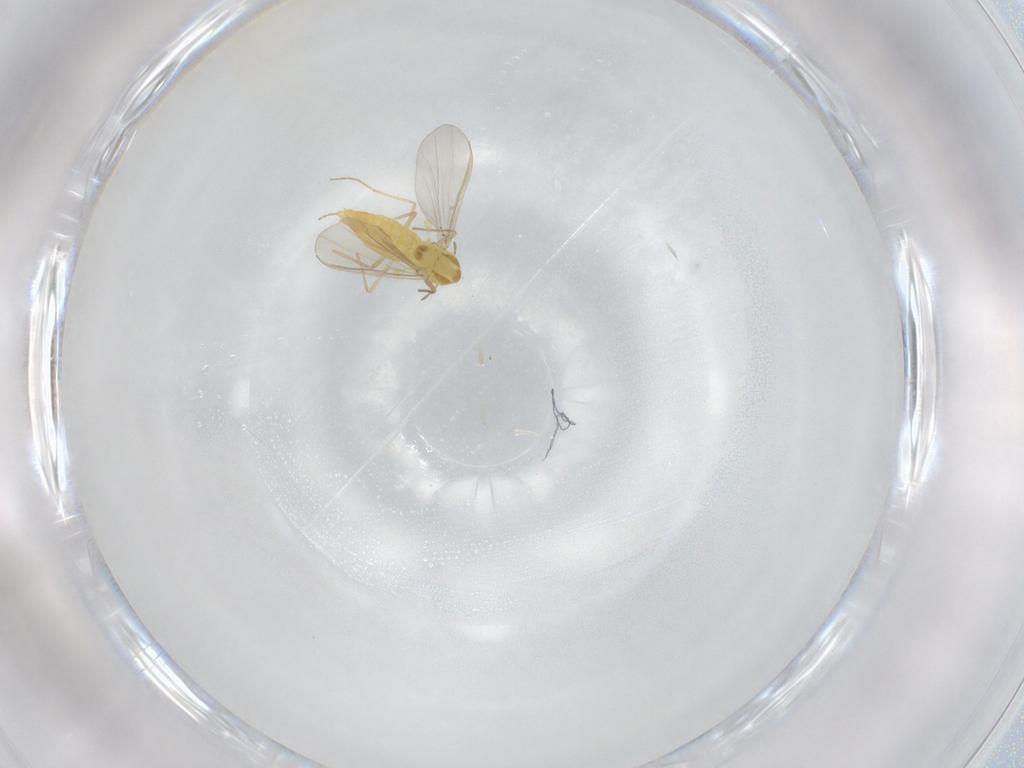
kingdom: Animalia
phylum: Arthropoda
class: Insecta
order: Diptera
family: Chironomidae
